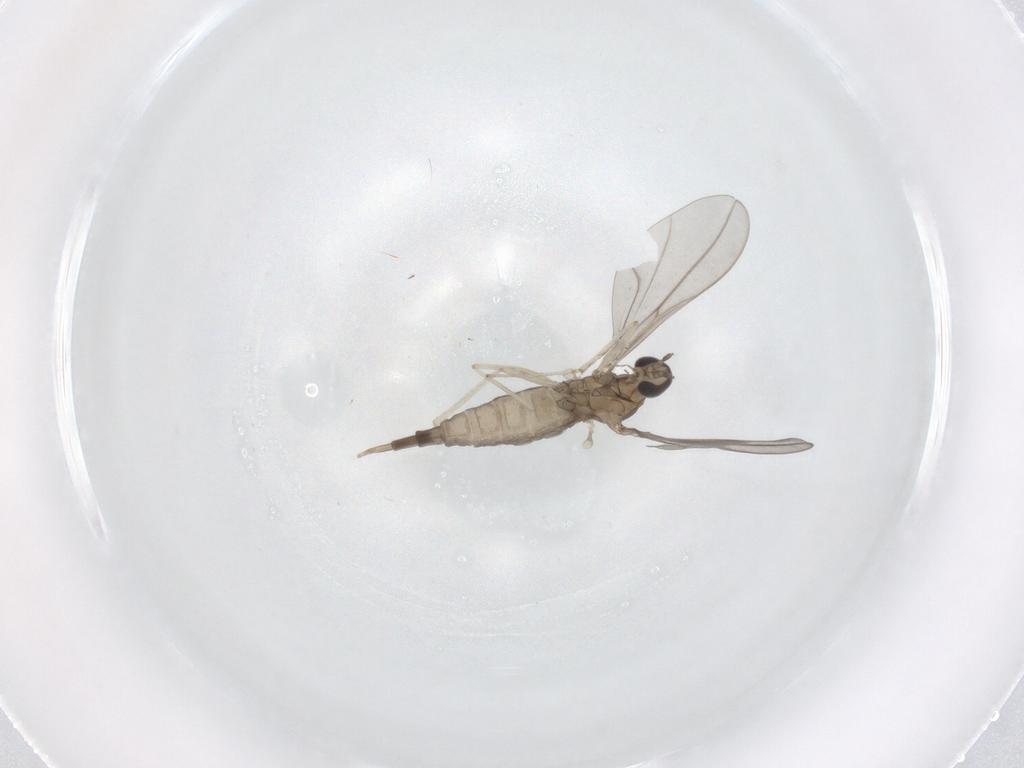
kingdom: Animalia
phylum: Arthropoda
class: Insecta
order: Diptera
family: Cecidomyiidae
